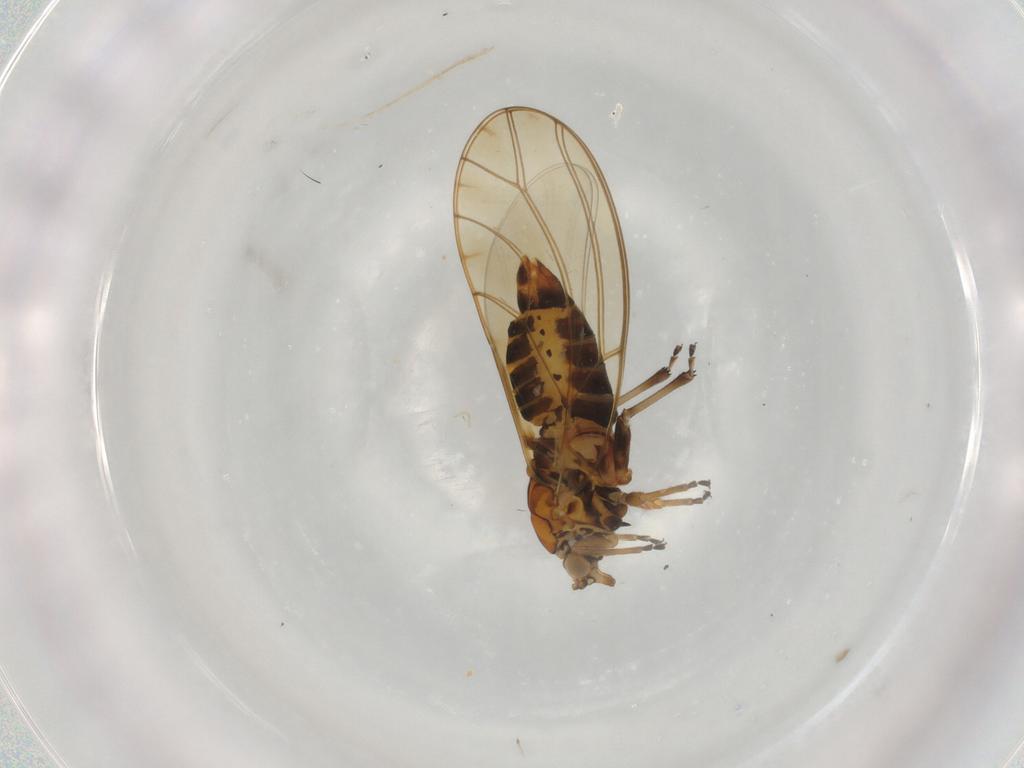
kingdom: Animalia
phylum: Arthropoda
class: Insecta
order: Hemiptera
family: Triozidae
